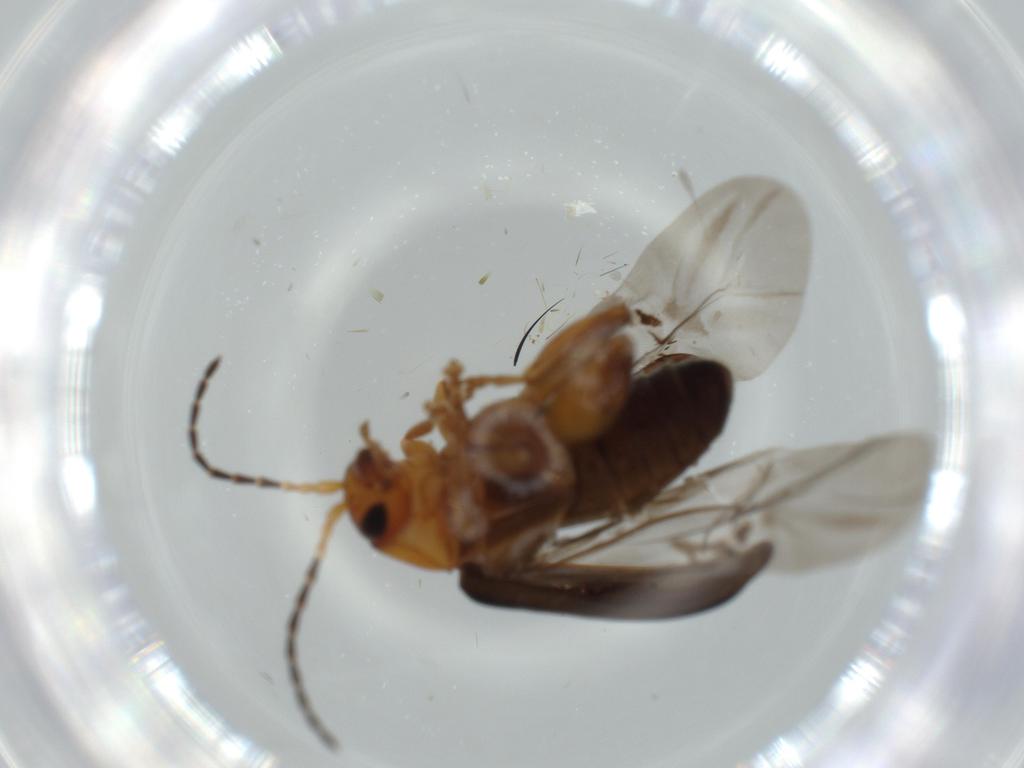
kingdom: Animalia
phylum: Arthropoda
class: Insecta
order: Coleoptera
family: Chrysomelidae
